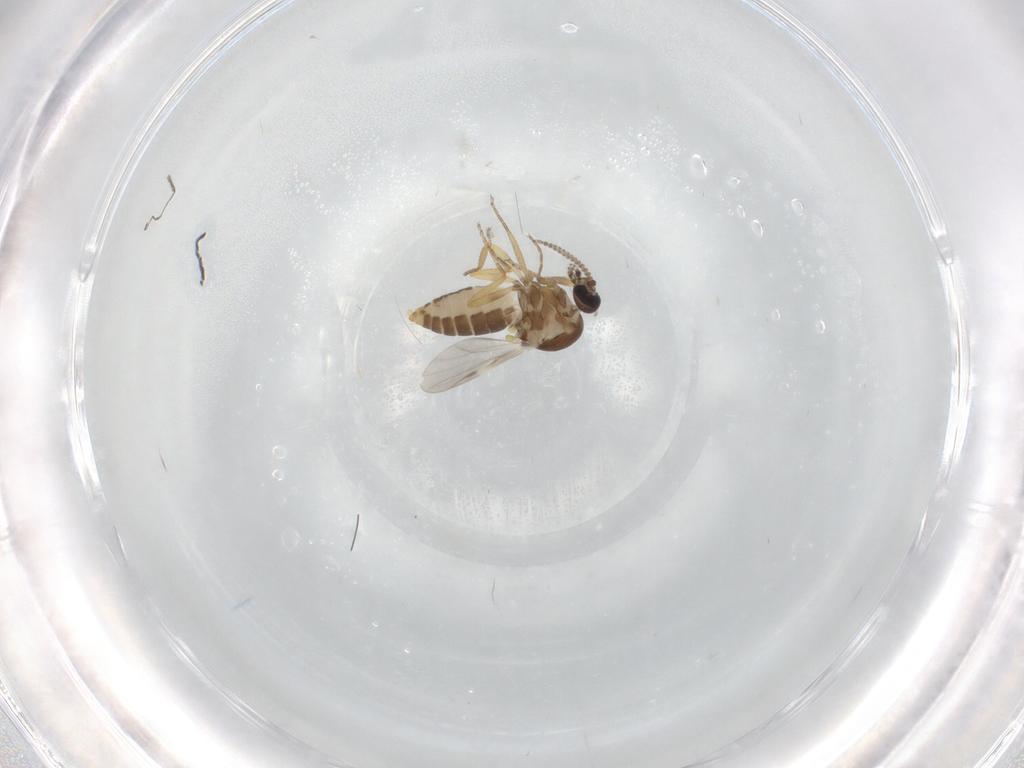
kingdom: Animalia
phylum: Arthropoda
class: Insecta
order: Diptera
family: Ceratopogonidae
